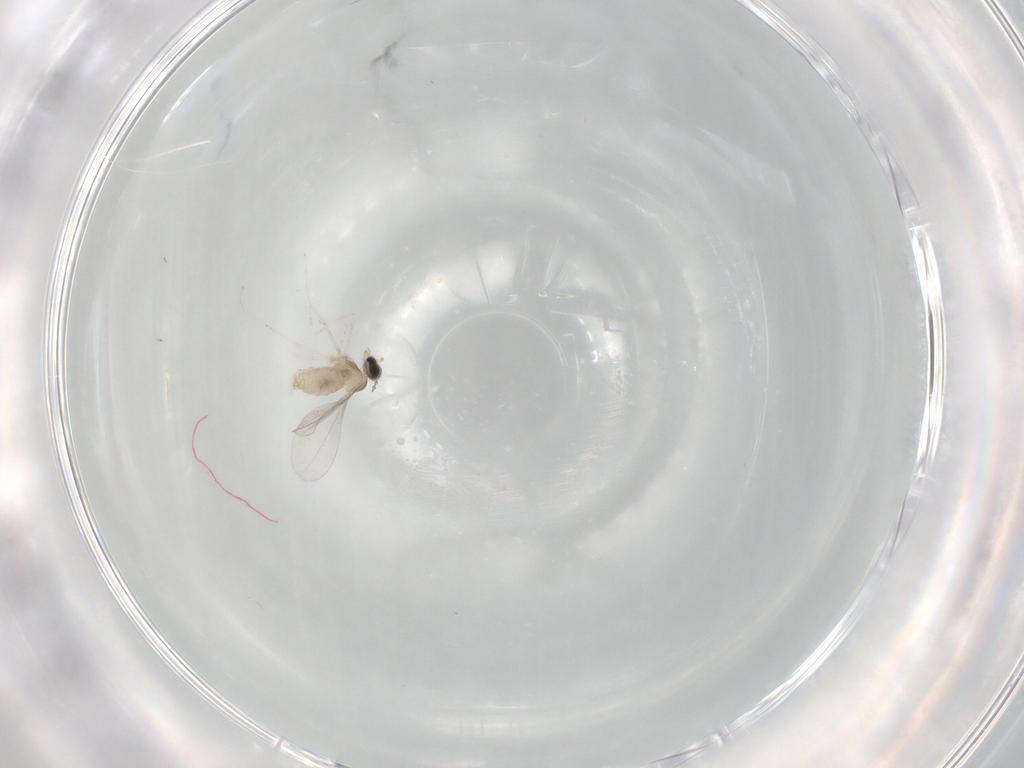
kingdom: Animalia
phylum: Arthropoda
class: Insecta
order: Diptera
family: Cecidomyiidae
